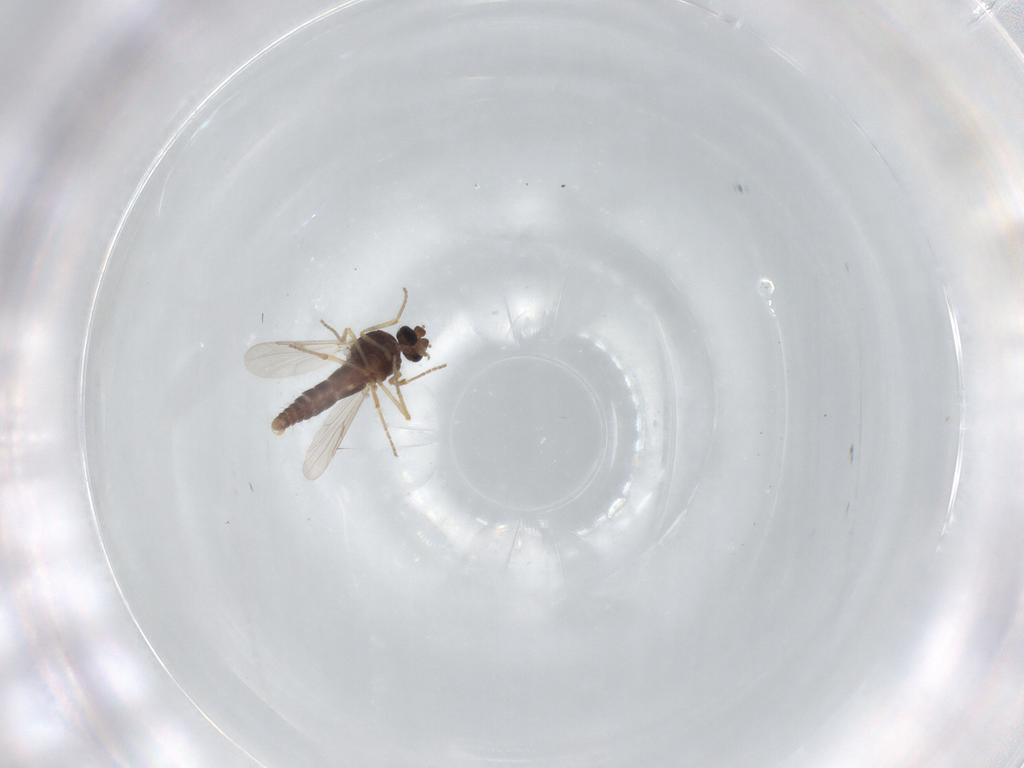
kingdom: Animalia
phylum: Arthropoda
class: Insecta
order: Diptera
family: Ceratopogonidae
